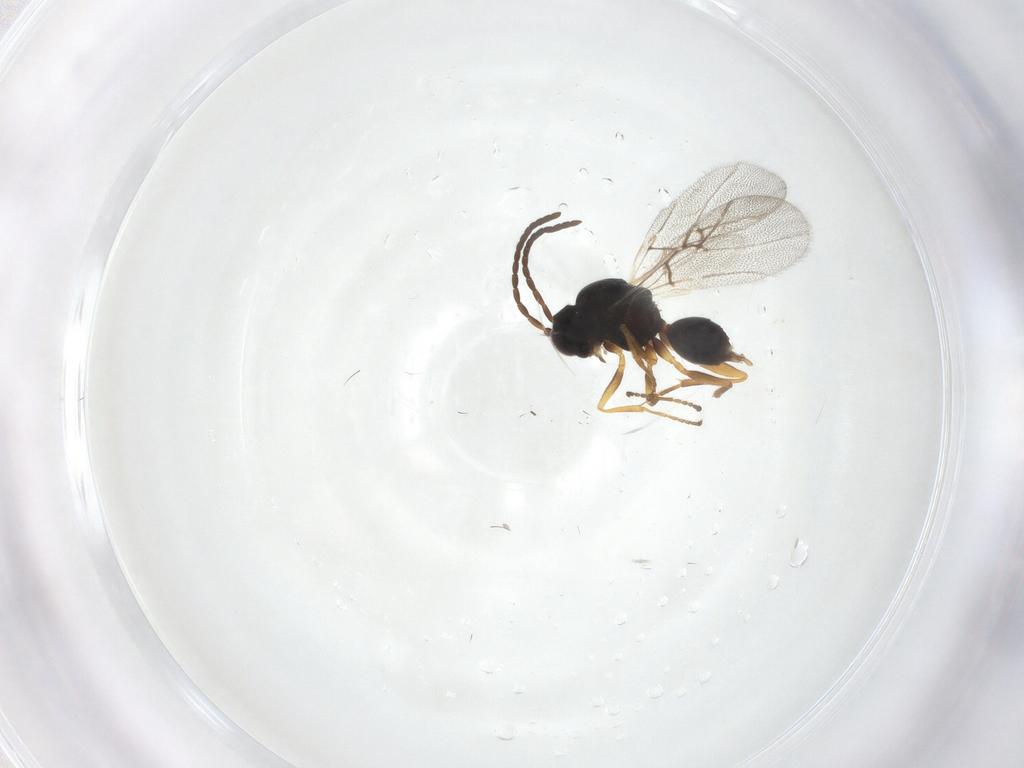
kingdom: Animalia
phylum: Arthropoda
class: Insecta
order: Hymenoptera
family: Cynipidae
